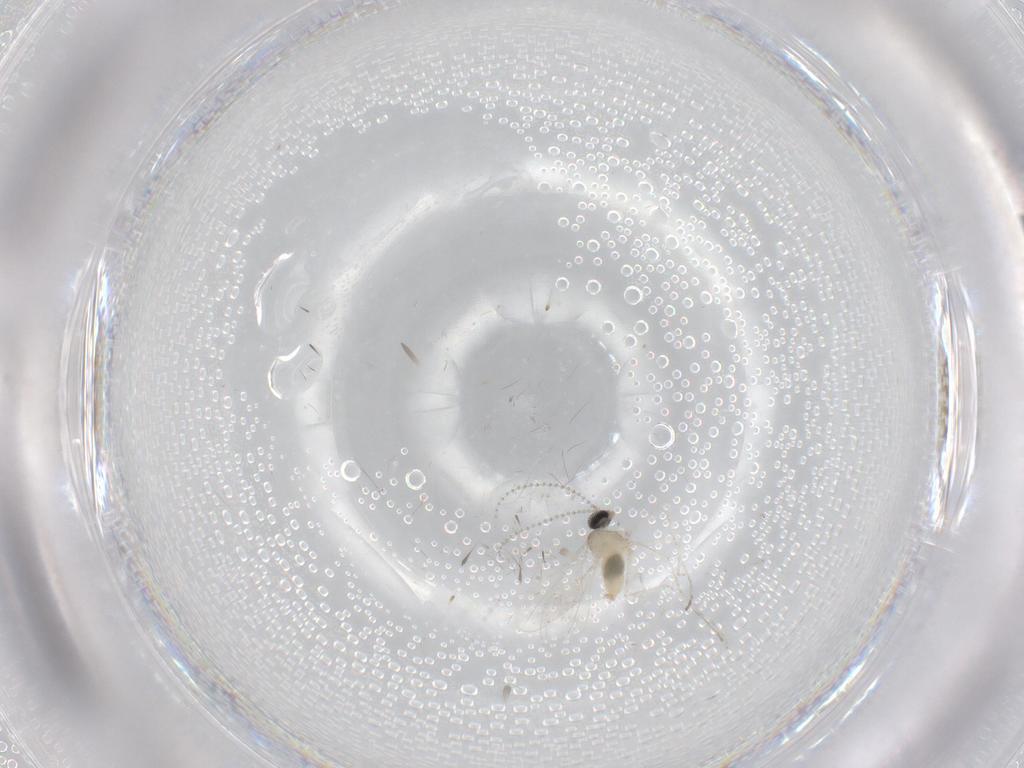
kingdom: Animalia
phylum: Arthropoda
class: Insecta
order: Diptera
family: Cecidomyiidae
